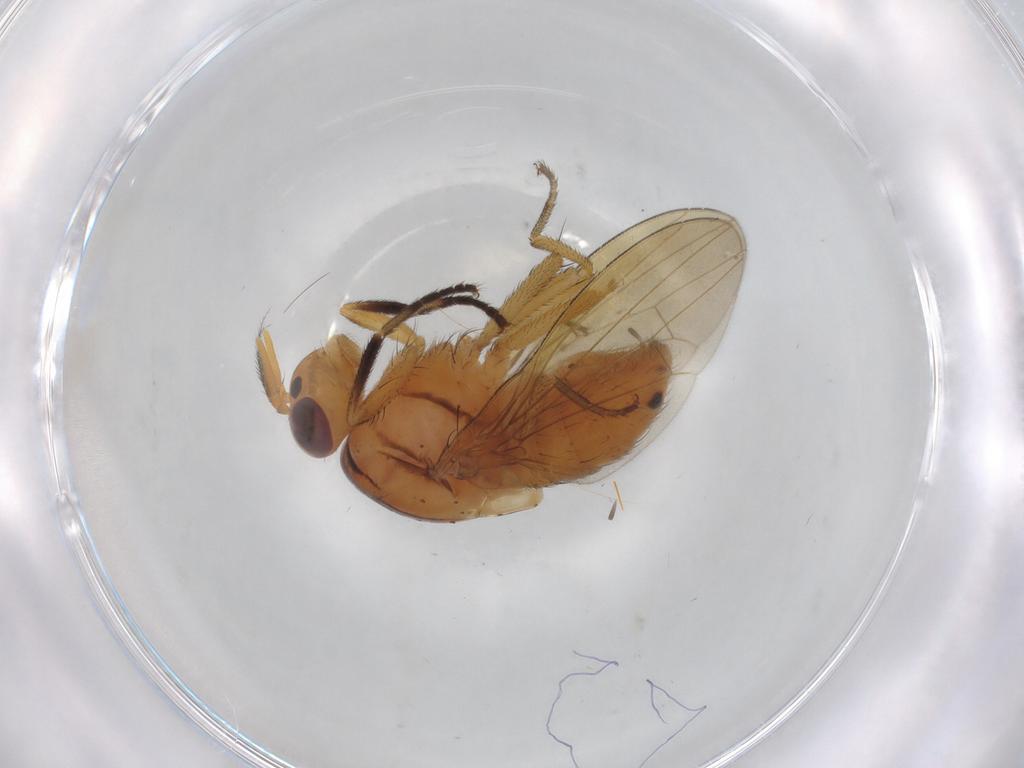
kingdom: Animalia
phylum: Arthropoda
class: Insecta
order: Diptera
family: Lauxaniidae
